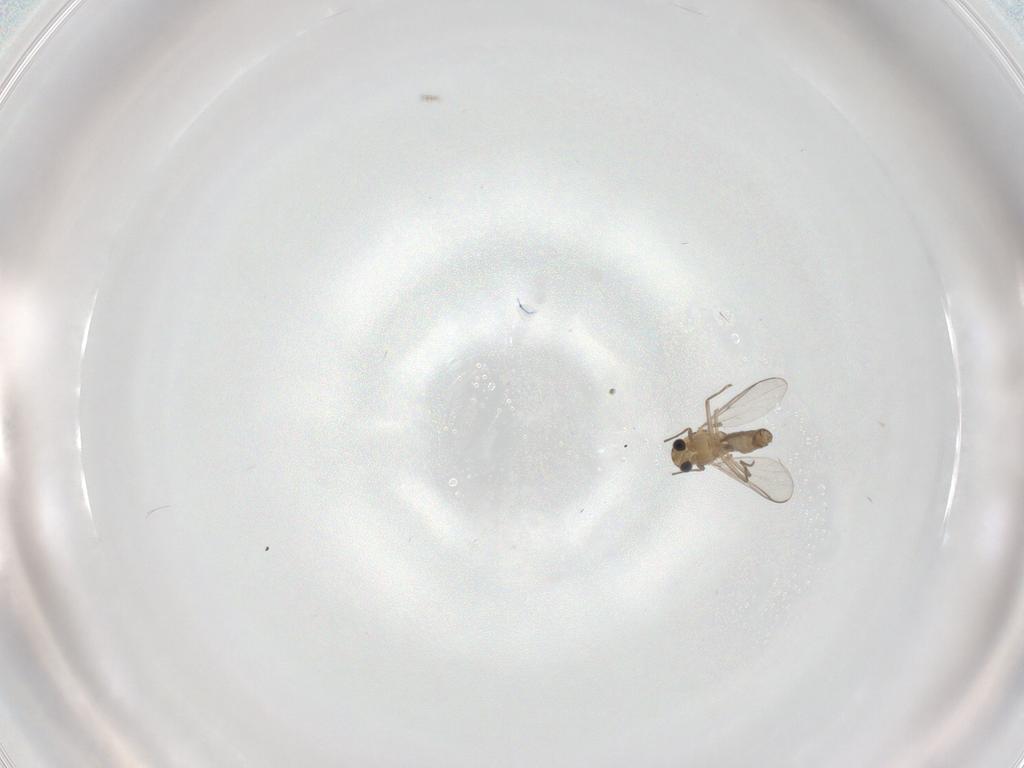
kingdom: Animalia
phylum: Arthropoda
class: Insecta
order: Diptera
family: Chironomidae
